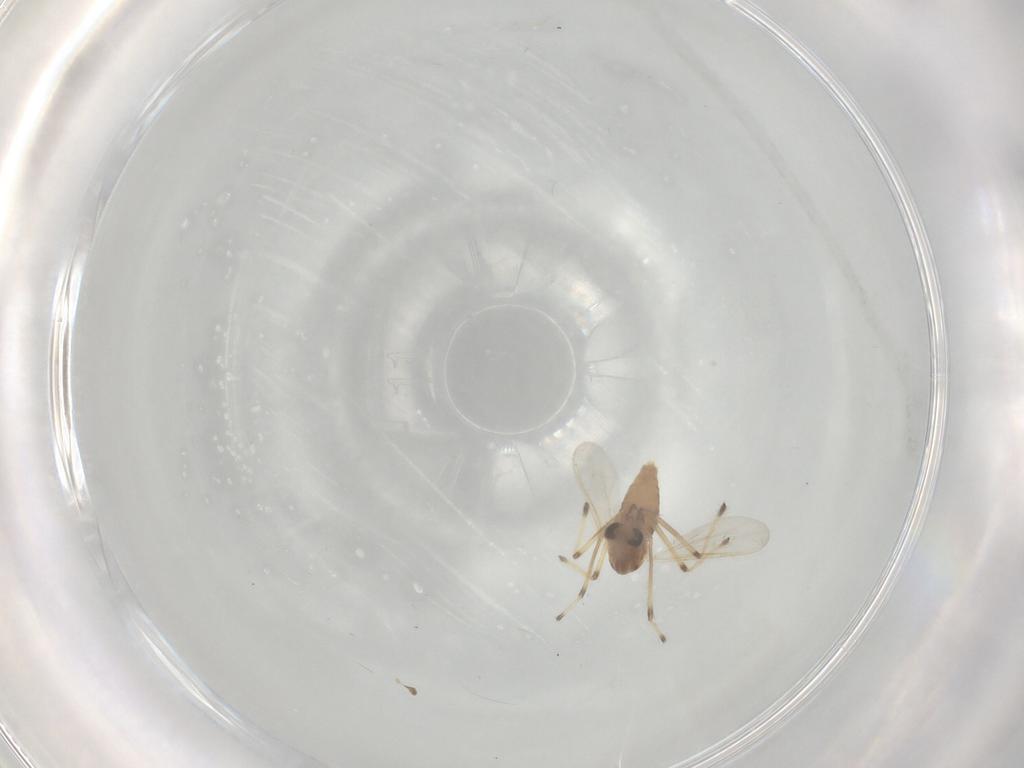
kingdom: Animalia
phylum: Arthropoda
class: Insecta
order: Diptera
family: Chironomidae
